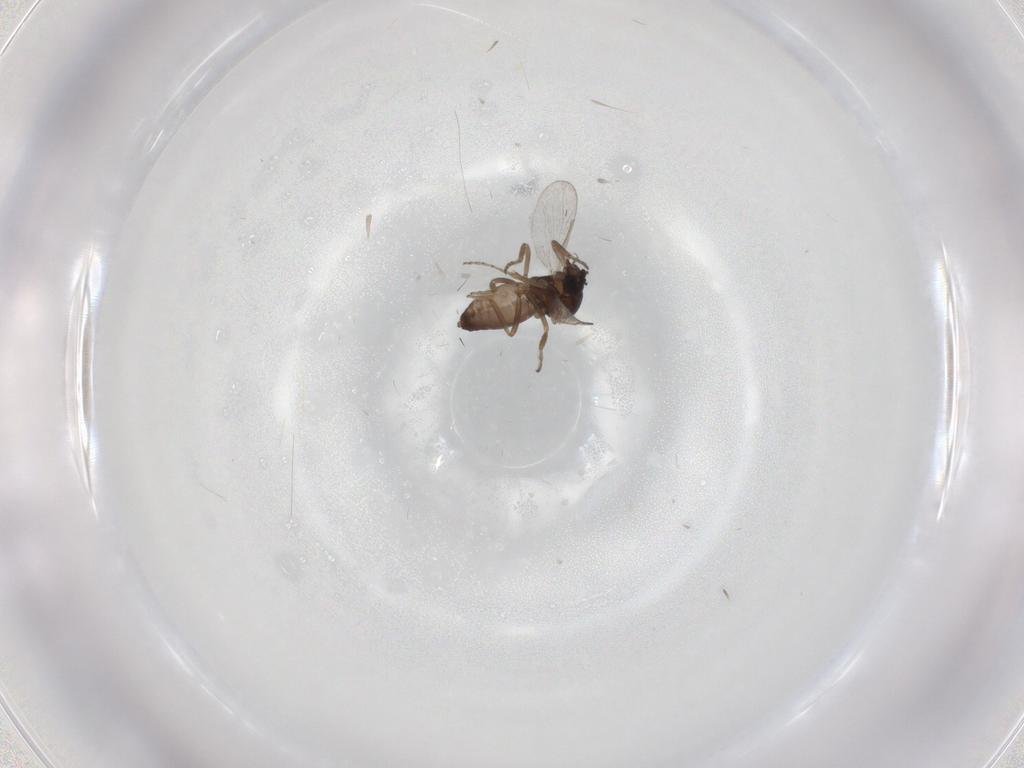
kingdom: Animalia
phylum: Arthropoda
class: Insecta
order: Diptera
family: Ceratopogonidae
